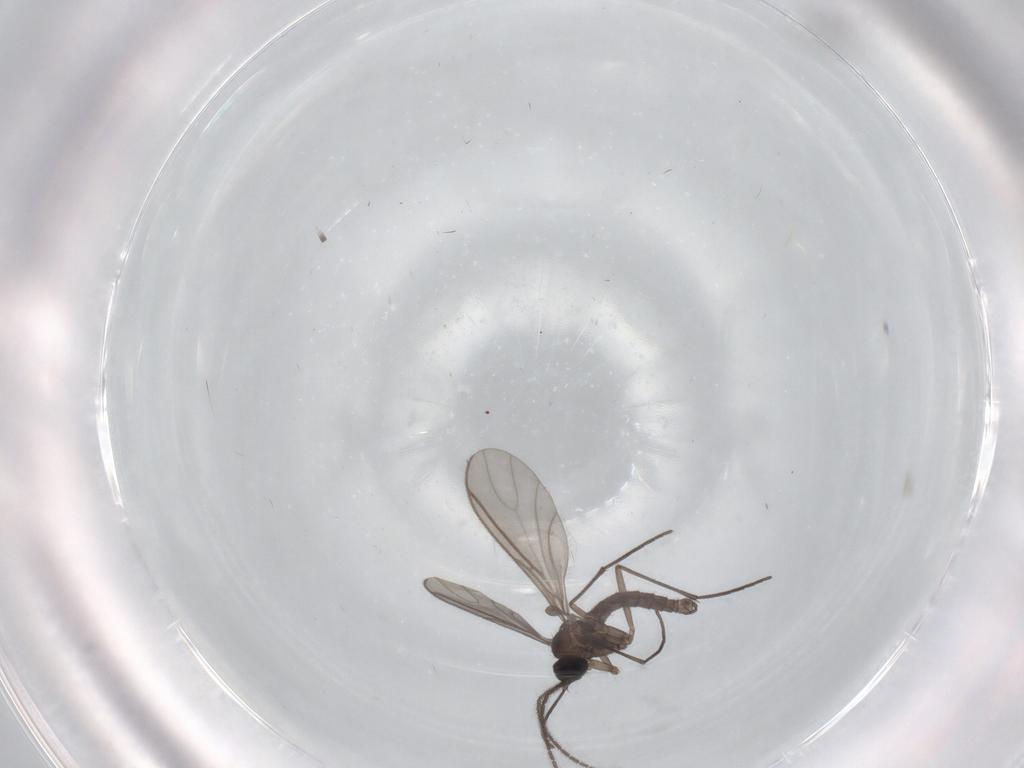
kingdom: Animalia
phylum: Arthropoda
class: Insecta
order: Diptera
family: Sciaridae
